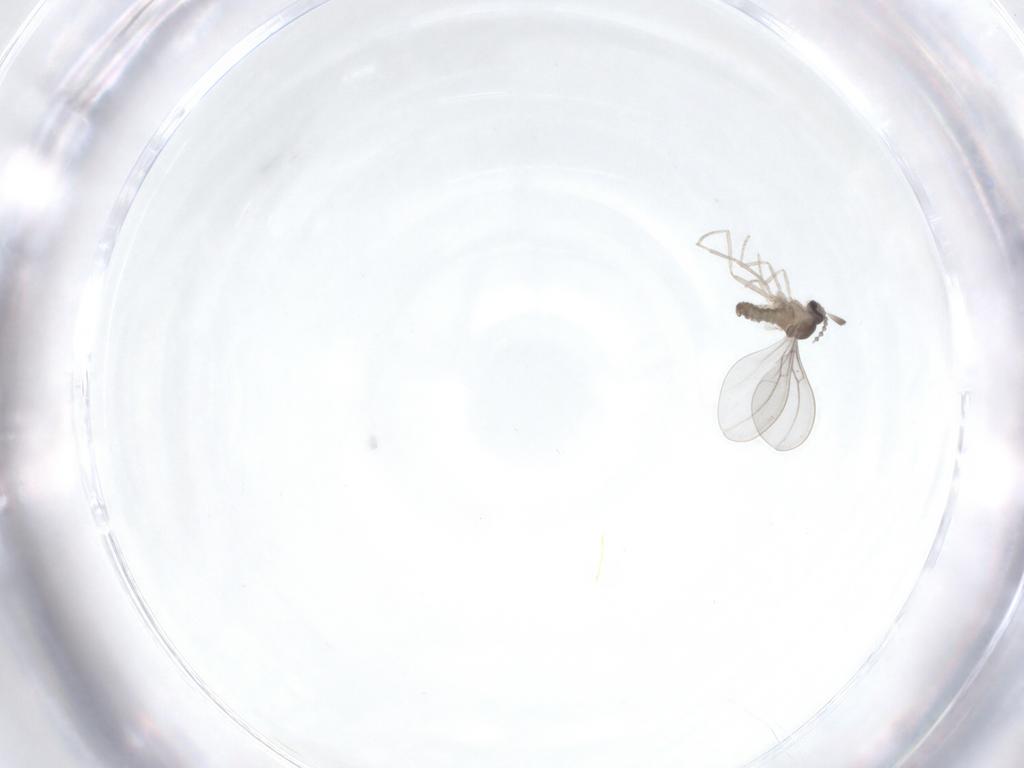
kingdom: Animalia
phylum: Arthropoda
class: Insecta
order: Diptera
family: Cecidomyiidae
